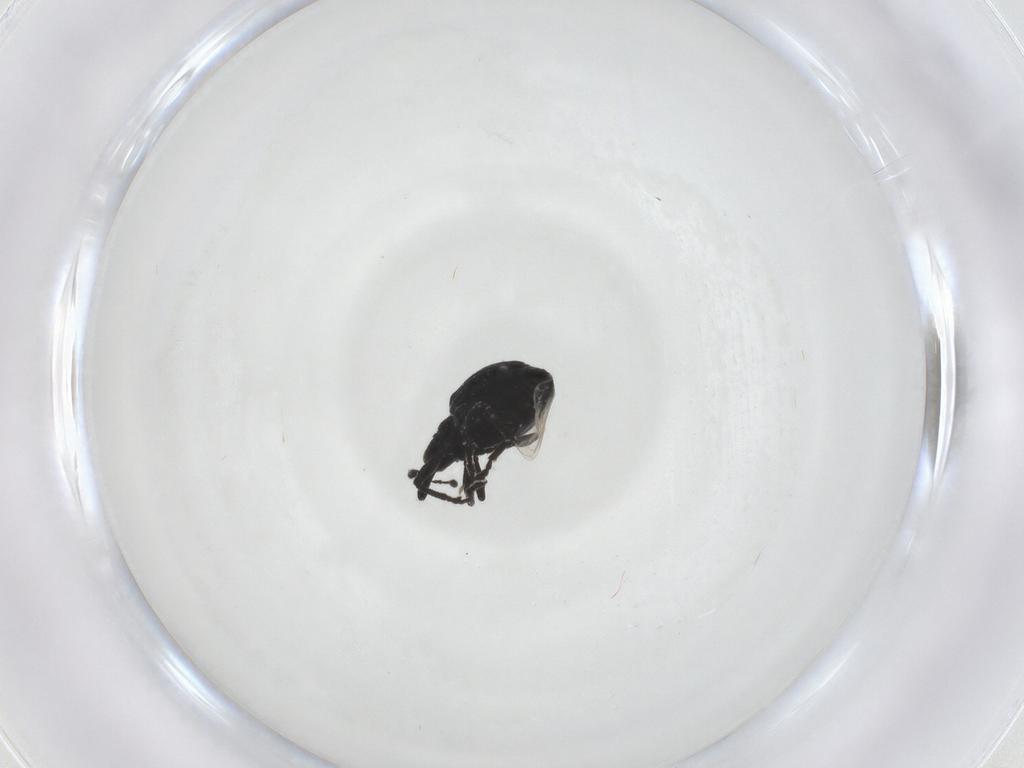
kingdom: Animalia
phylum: Arthropoda
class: Insecta
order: Coleoptera
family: Brentidae
